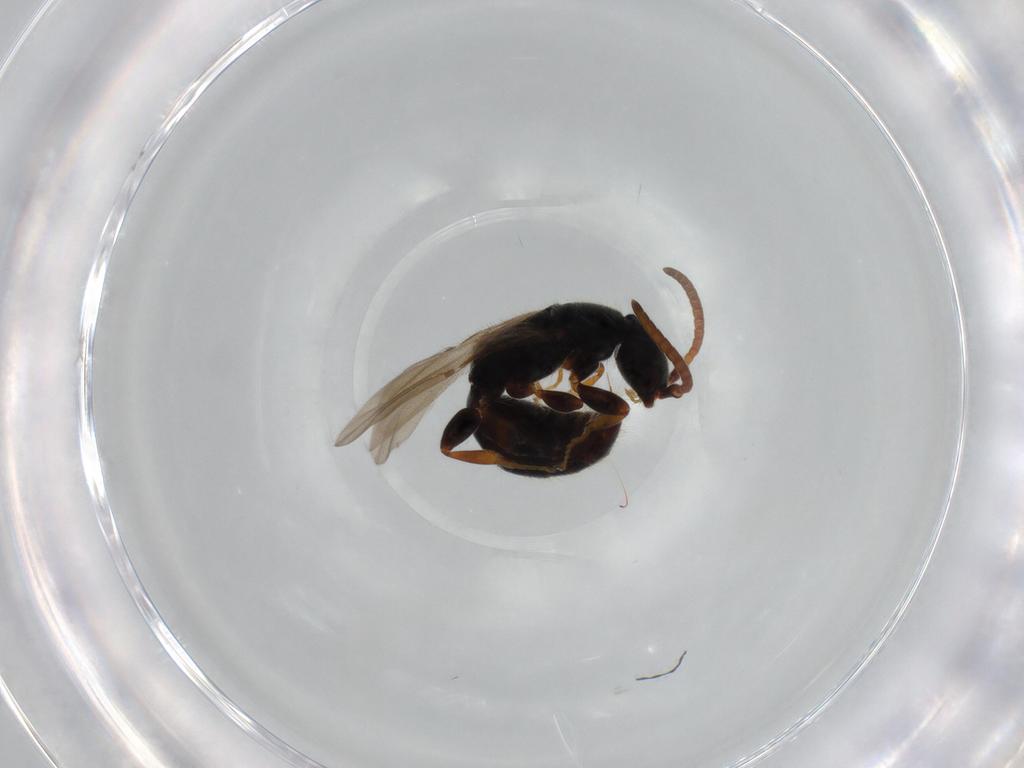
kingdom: Animalia
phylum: Arthropoda
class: Insecta
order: Hymenoptera
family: Bethylidae
